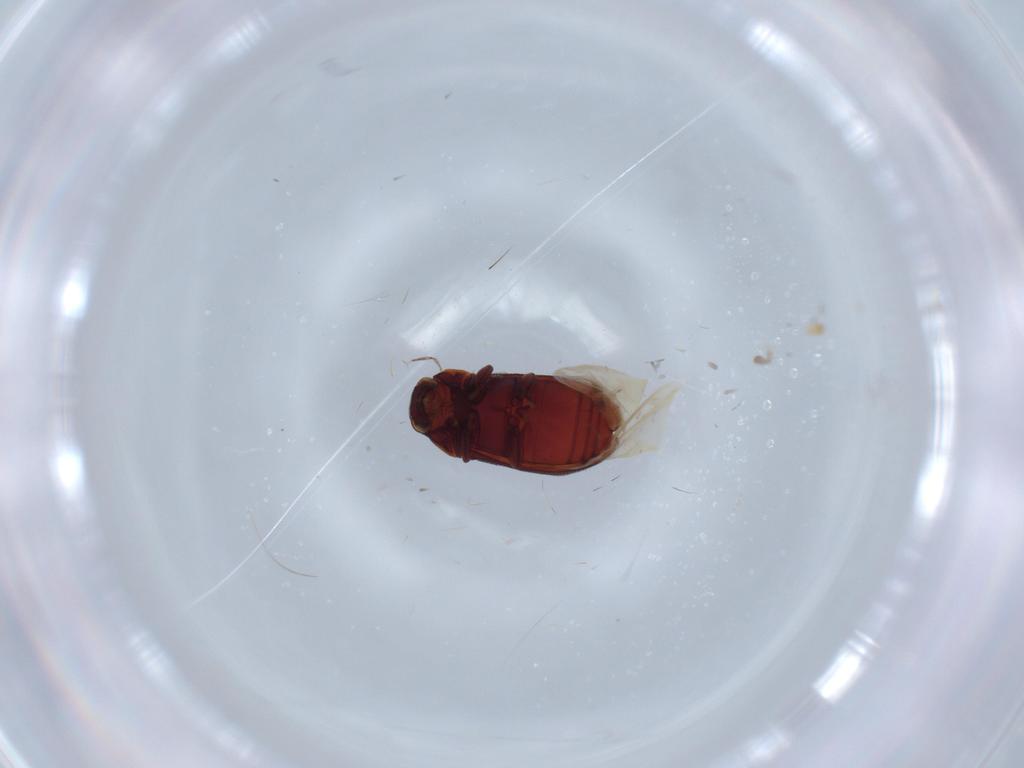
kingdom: Animalia
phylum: Arthropoda
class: Insecta
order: Coleoptera
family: Ptinidae
